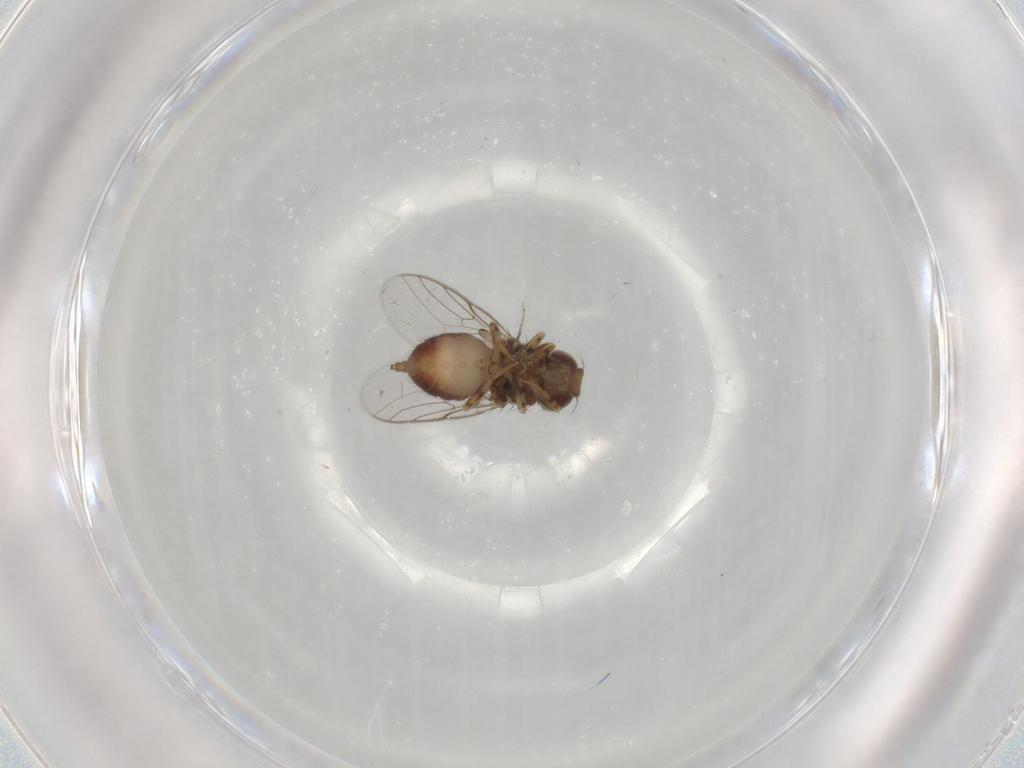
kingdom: Animalia
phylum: Arthropoda
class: Insecta
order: Diptera
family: Chloropidae
